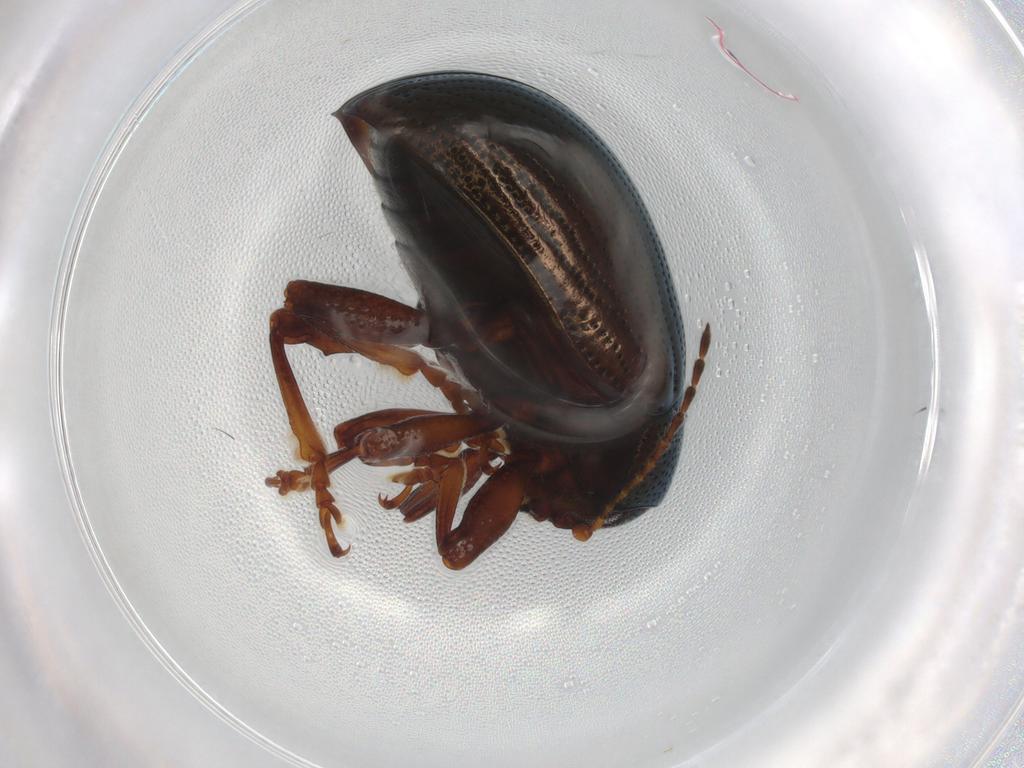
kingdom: Animalia
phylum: Arthropoda
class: Insecta
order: Coleoptera
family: Chrysomelidae
